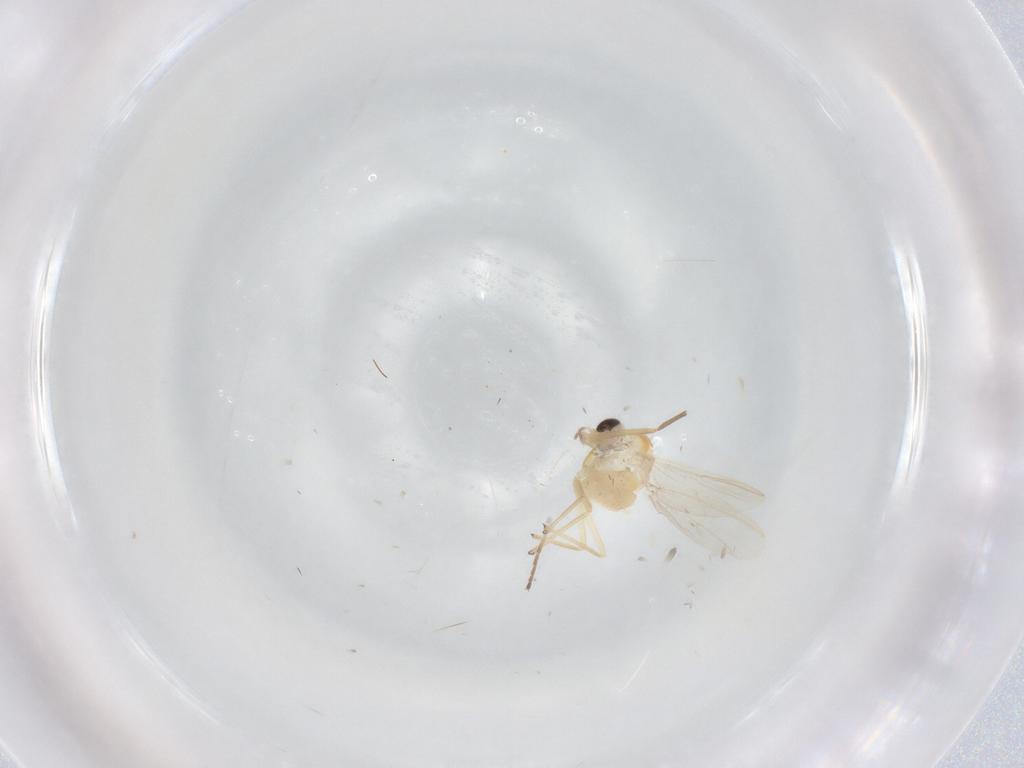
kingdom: Animalia
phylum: Arthropoda
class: Insecta
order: Diptera
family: Chironomidae
